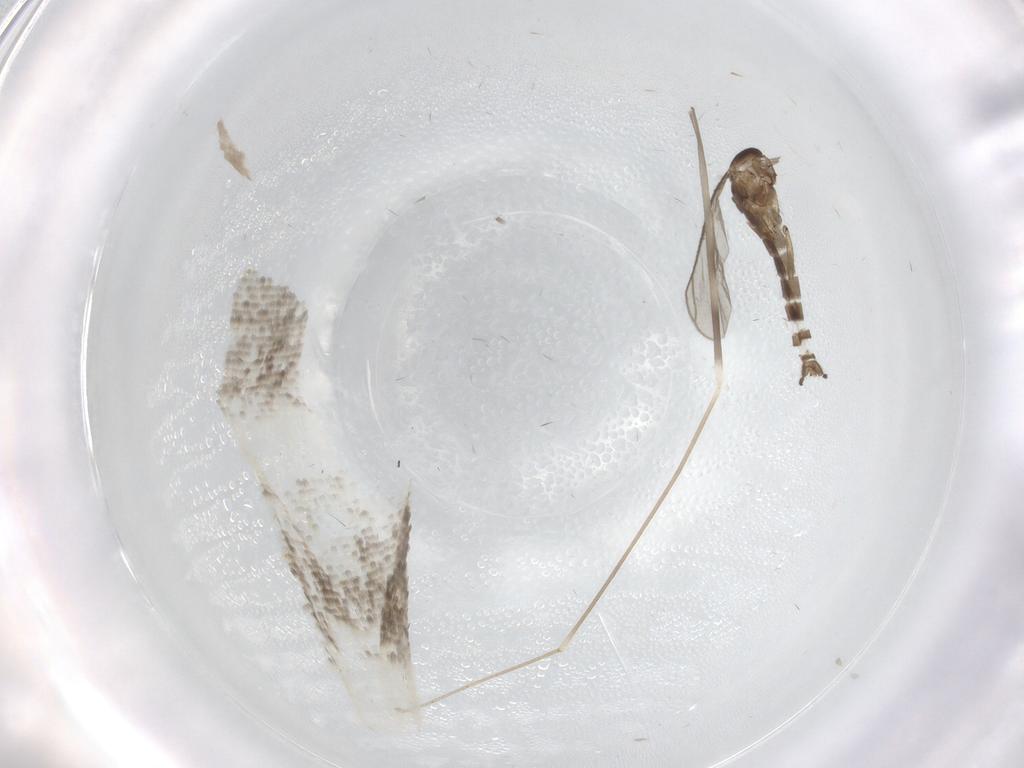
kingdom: Animalia
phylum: Arthropoda
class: Insecta
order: Diptera
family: Limoniidae
